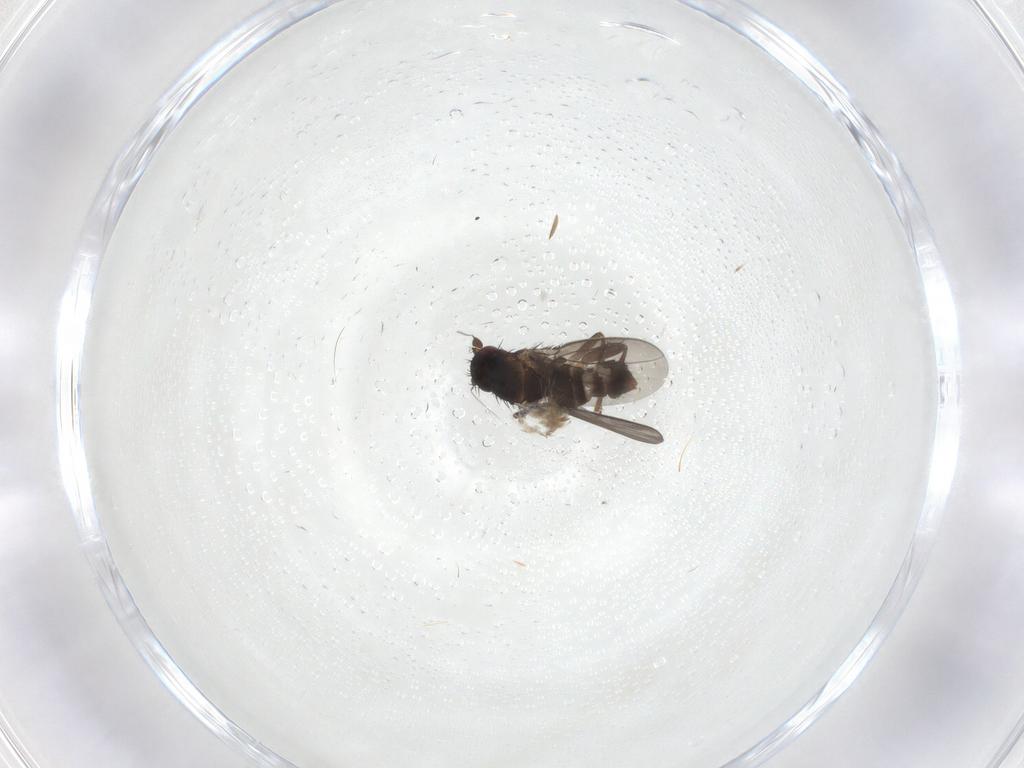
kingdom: Animalia
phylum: Arthropoda
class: Insecta
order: Diptera
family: Sphaeroceridae
